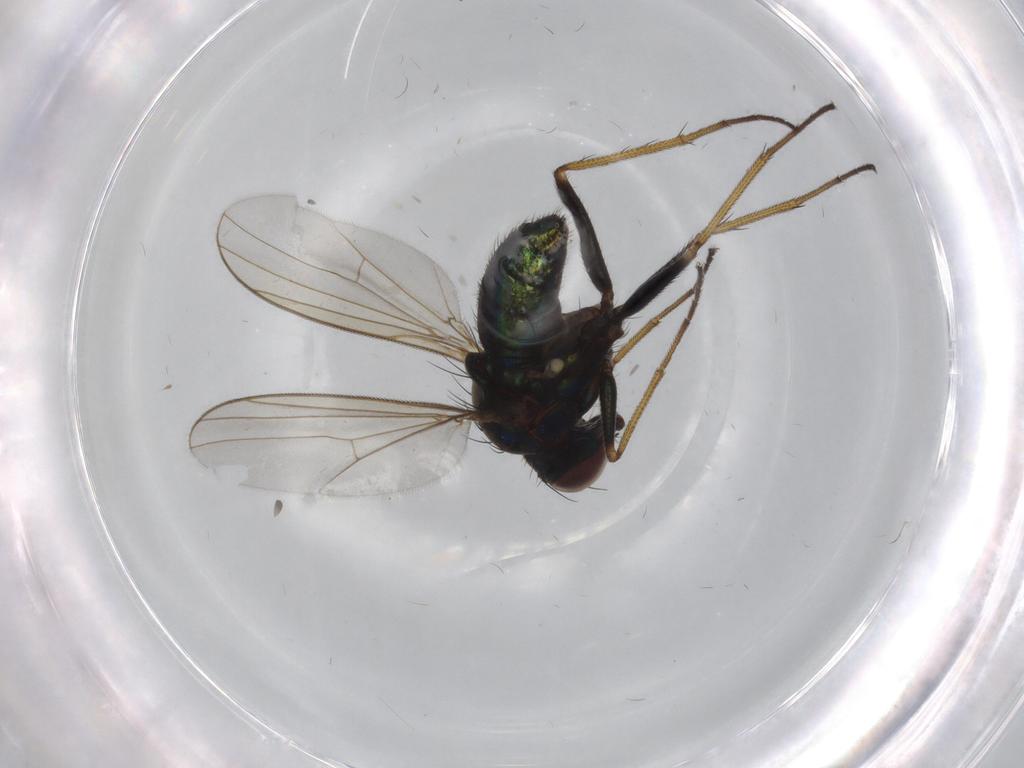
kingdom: Animalia
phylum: Arthropoda
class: Insecta
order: Diptera
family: Dolichopodidae
